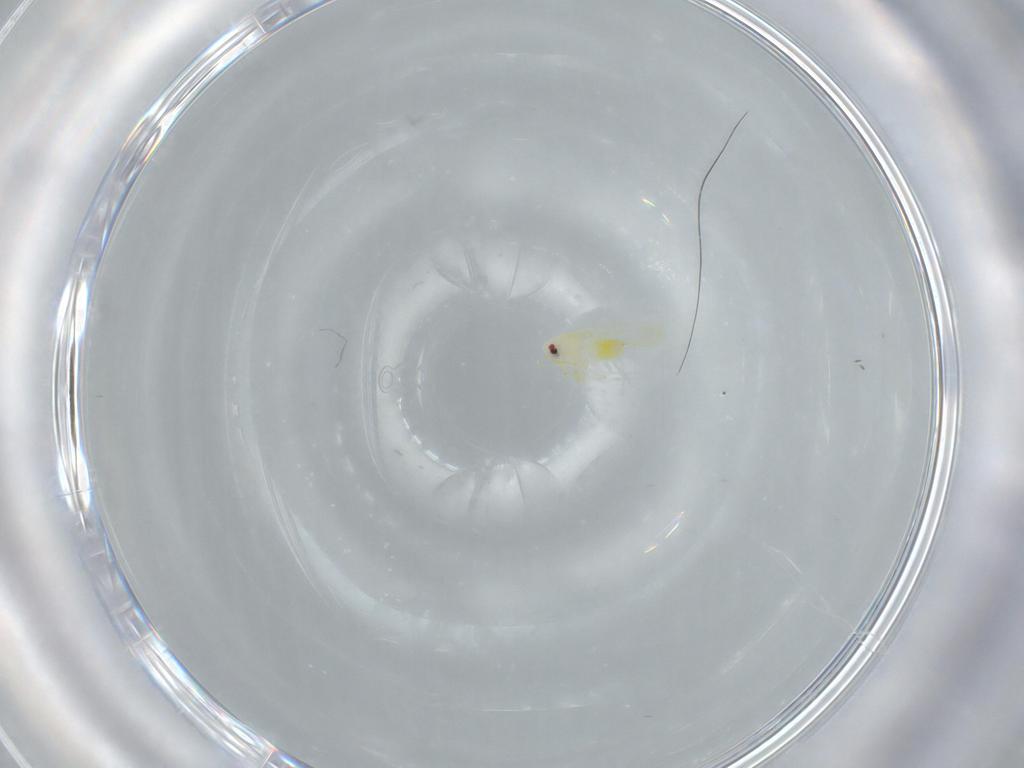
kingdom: Animalia
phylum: Arthropoda
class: Insecta
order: Hemiptera
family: Aleyrodidae
